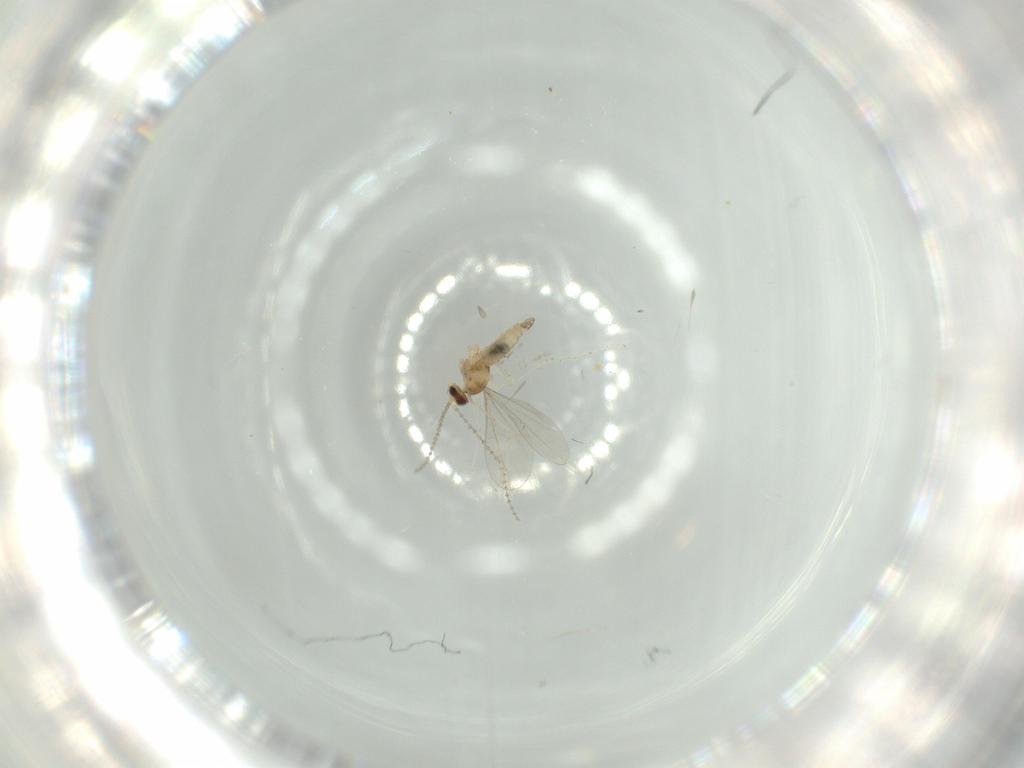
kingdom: Animalia
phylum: Arthropoda
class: Insecta
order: Diptera
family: Cecidomyiidae
